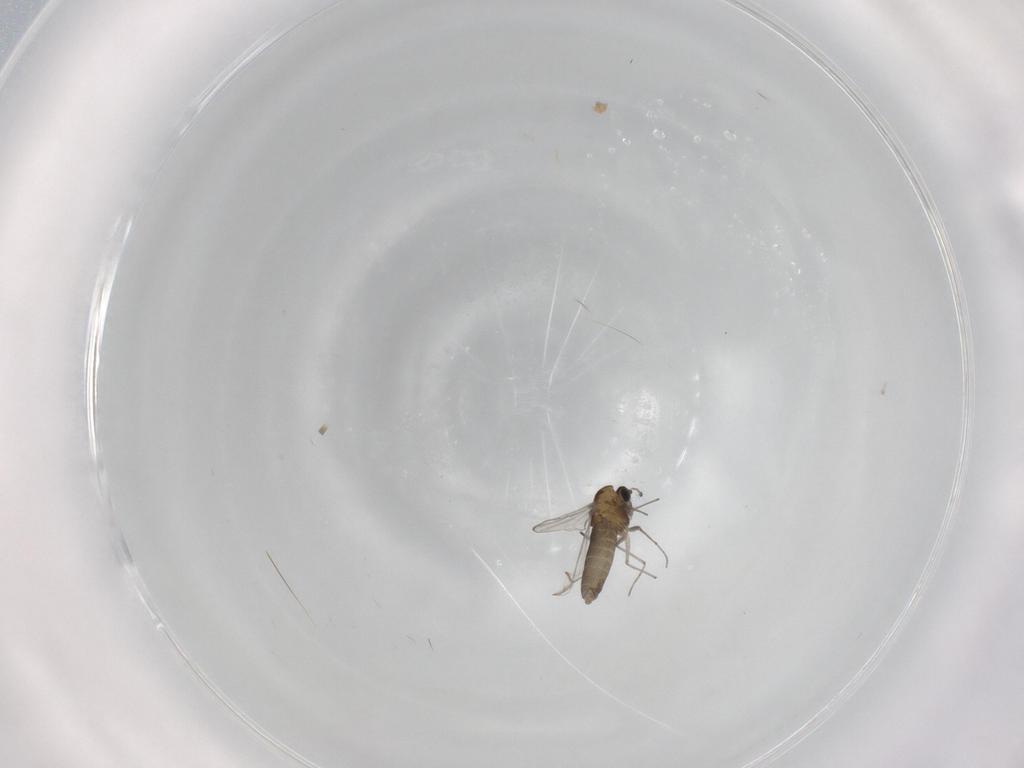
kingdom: Animalia
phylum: Arthropoda
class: Insecta
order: Diptera
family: Chironomidae
